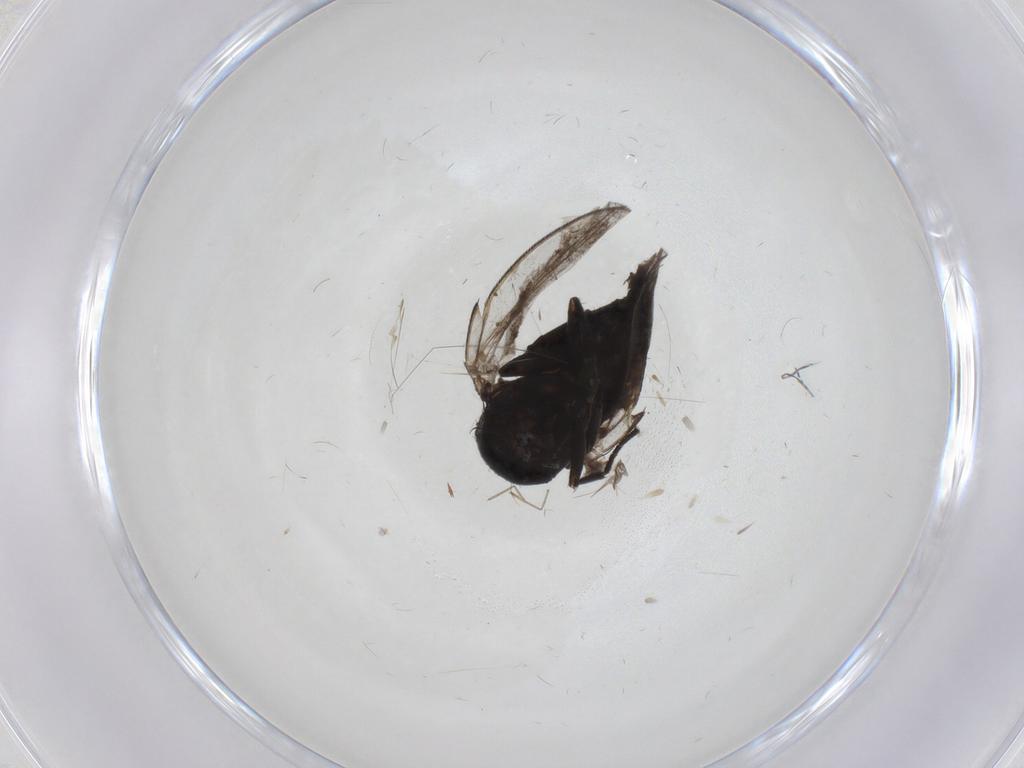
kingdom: Animalia
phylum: Arthropoda
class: Insecta
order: Diptera
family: Milichiidae
